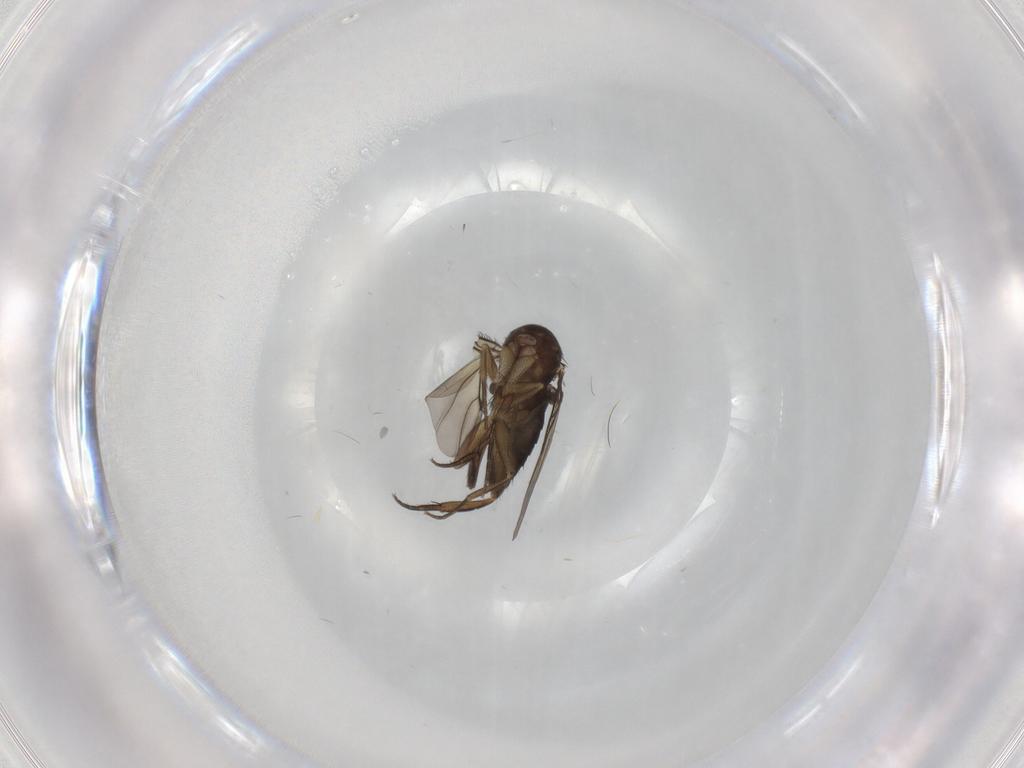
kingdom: Animalia
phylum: Arthropoda
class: Insecta
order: Diptera
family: Phoridae
